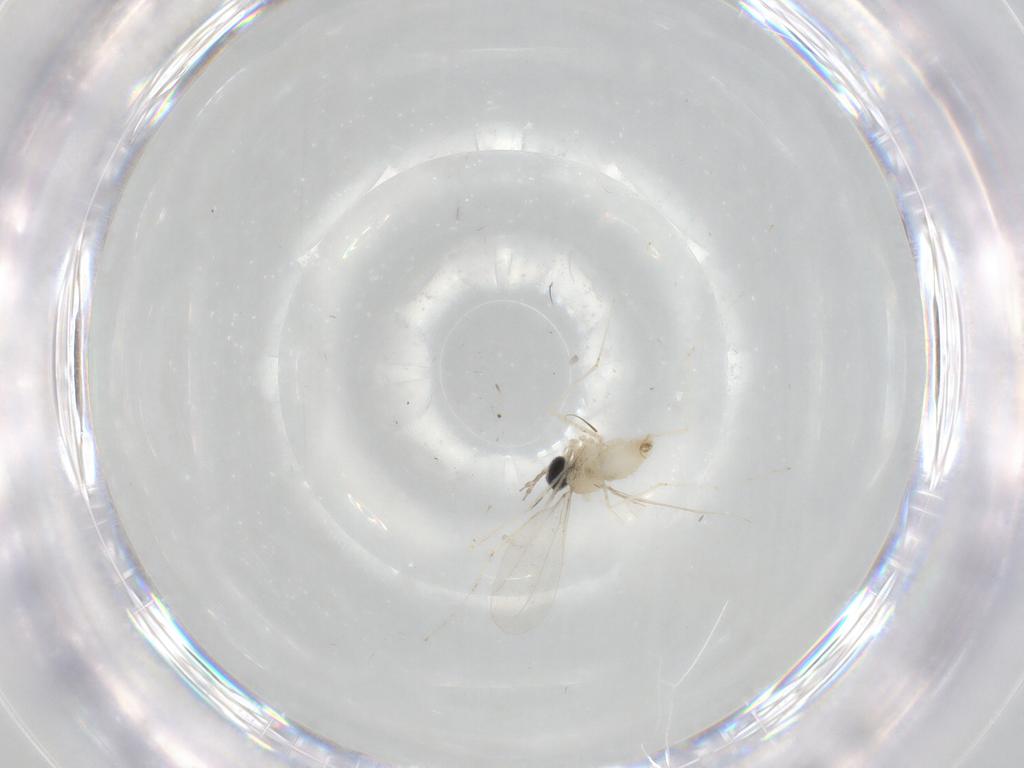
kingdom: Animalia
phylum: Arthropoda
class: Insecta
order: Diptera
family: Cecidomyiidae
